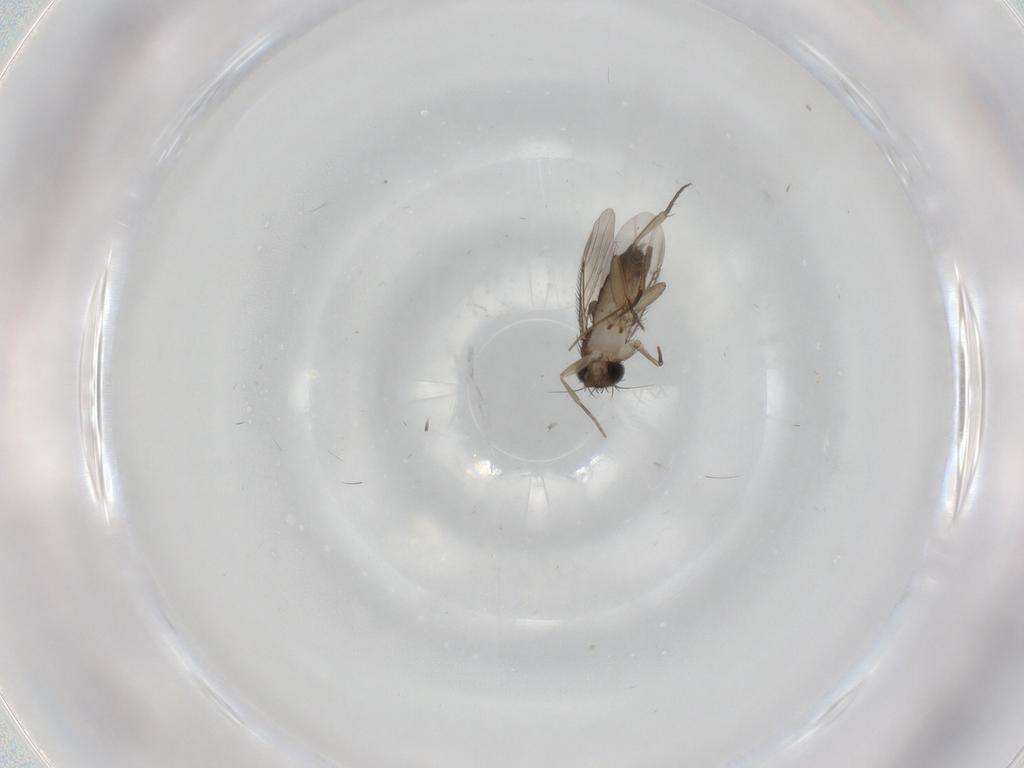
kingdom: Animalia
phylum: Arthropoda
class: Insecta
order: Diptera
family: Phoridae
